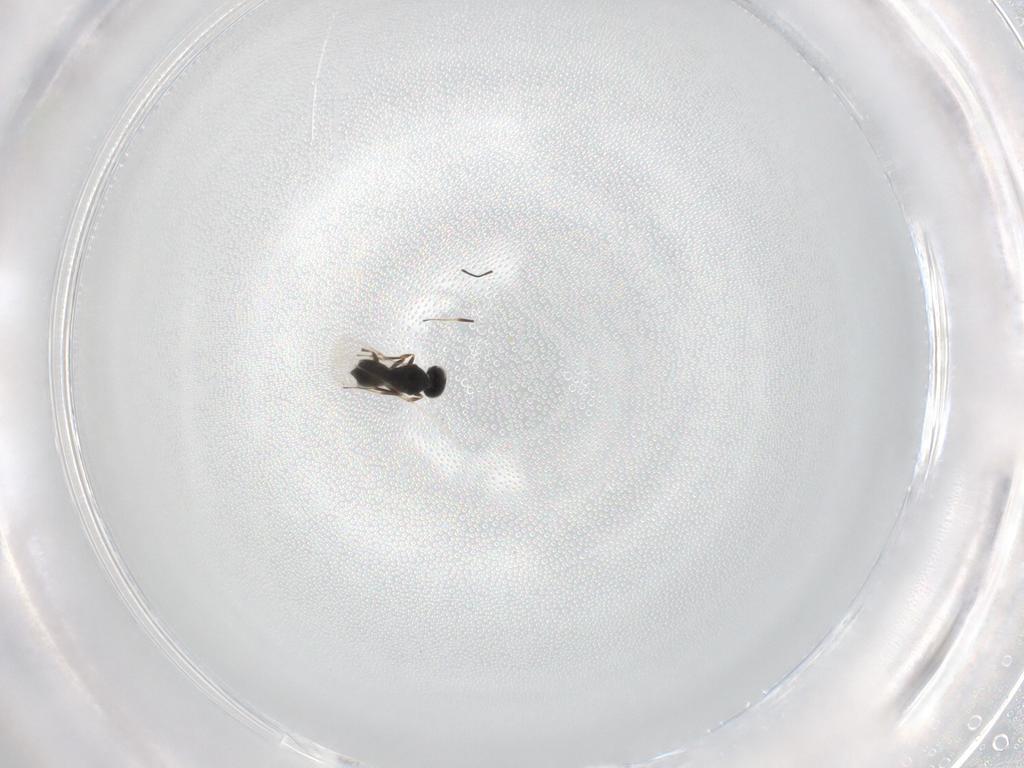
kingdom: Animalia
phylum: Arthropoda
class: Insecta
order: Hymenoptera
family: Scelionidae
